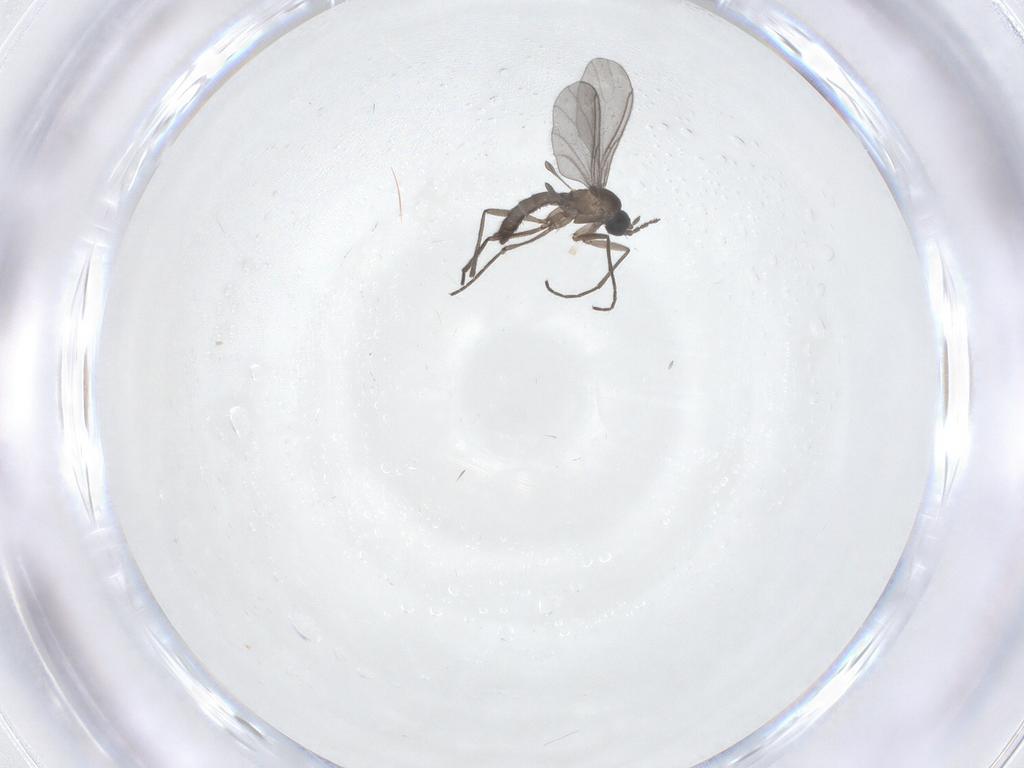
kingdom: Animalia
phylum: Arthropoda
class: Insecta
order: Diptera
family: Sciaridae
